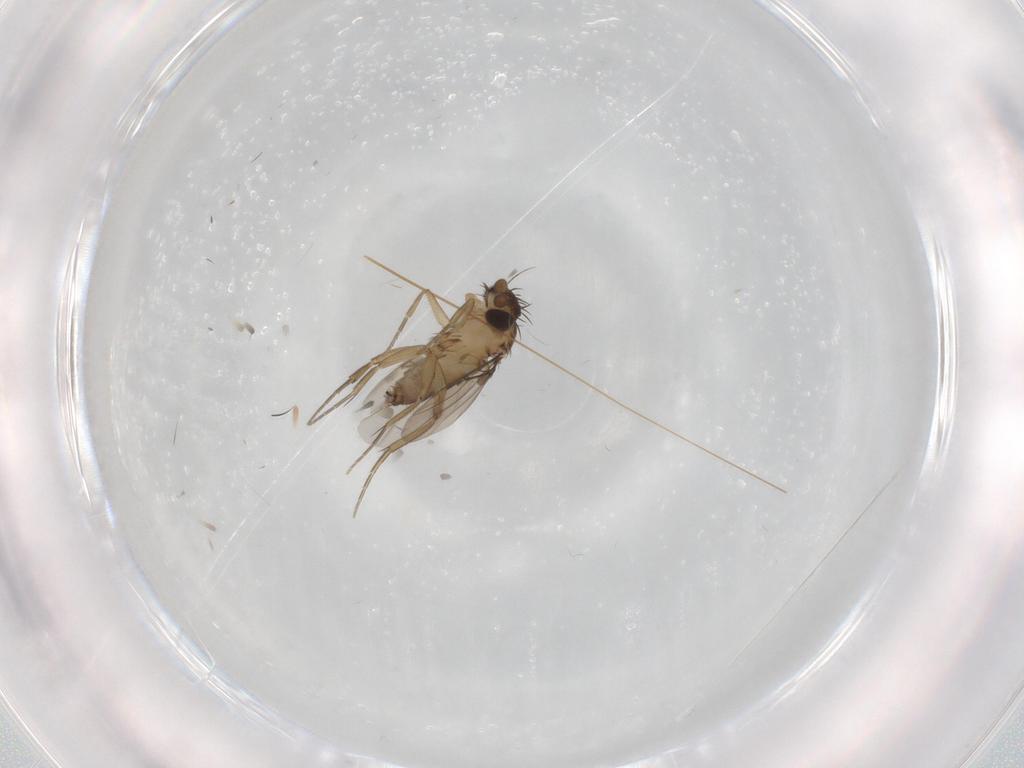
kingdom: Animalia
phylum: Arthropoda
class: Insecta
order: Diptera
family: Phoridae
